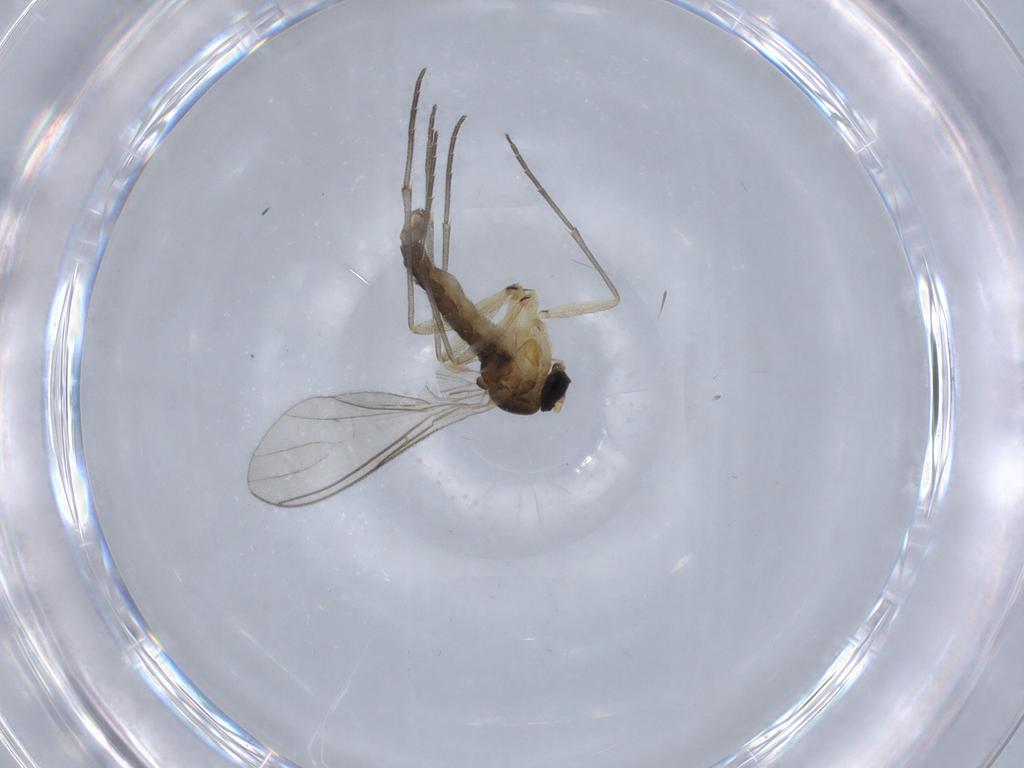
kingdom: Animalia
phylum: Arthropoda
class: Insecta
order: Diptera
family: Sciaridae
